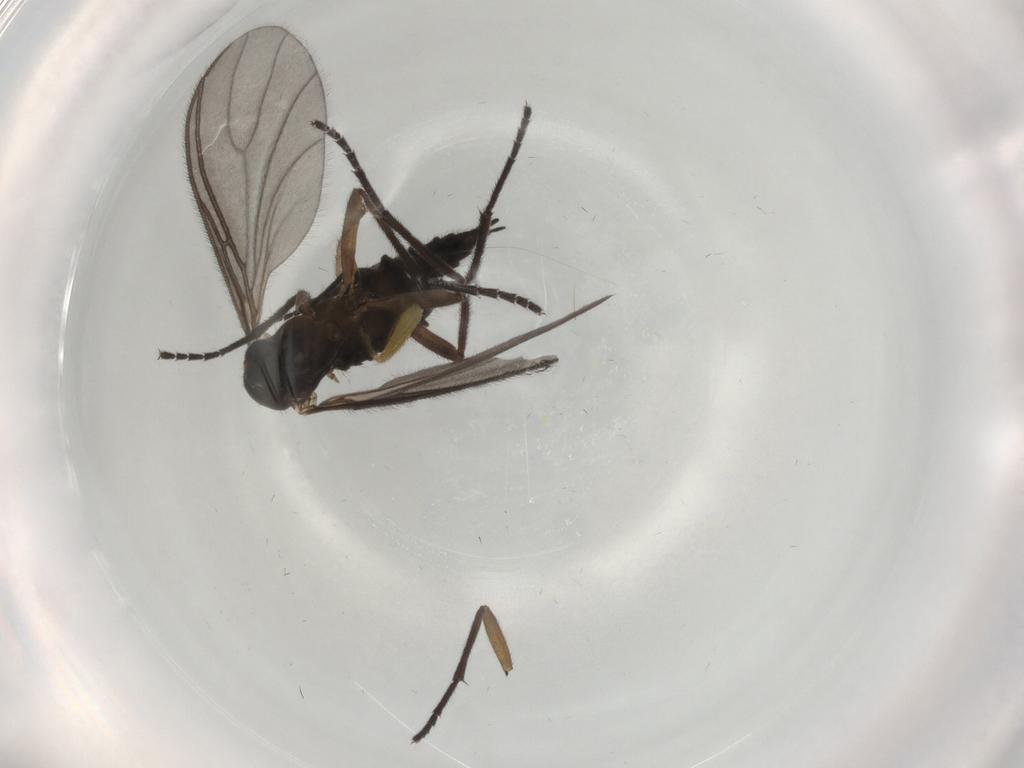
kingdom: Animalia
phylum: Arthropoda
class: Insecta
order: Diptera
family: Sciaridae
